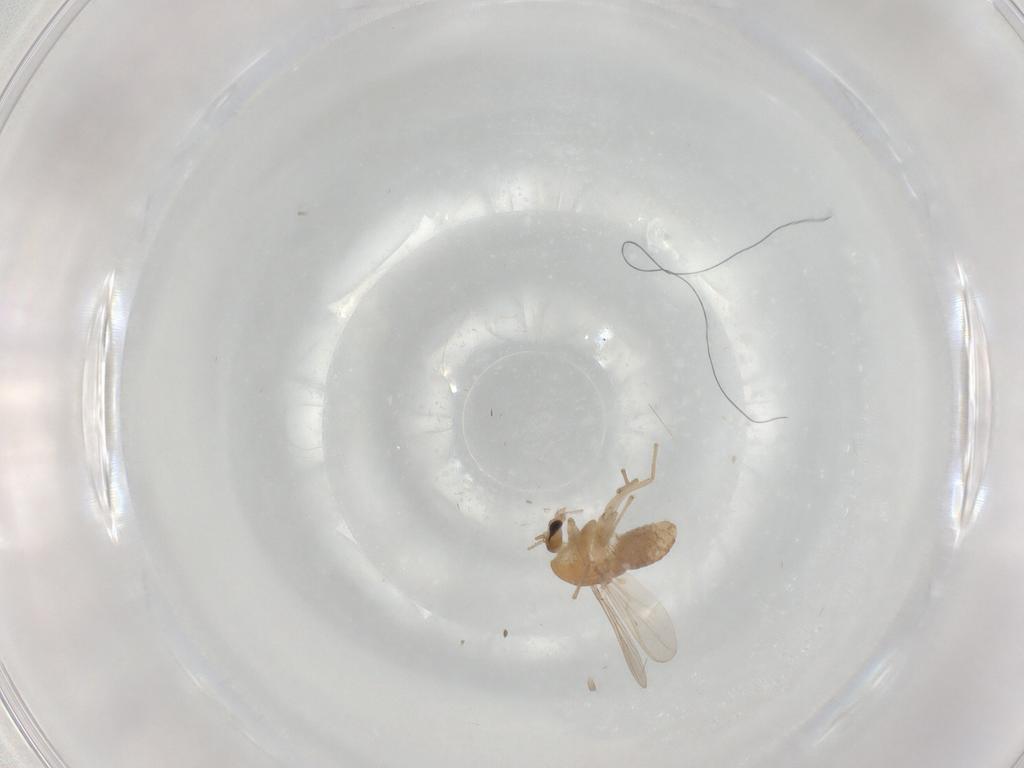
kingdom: Animalia
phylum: Arthropoda
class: Insecta
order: Diptera
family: Chironomidae
